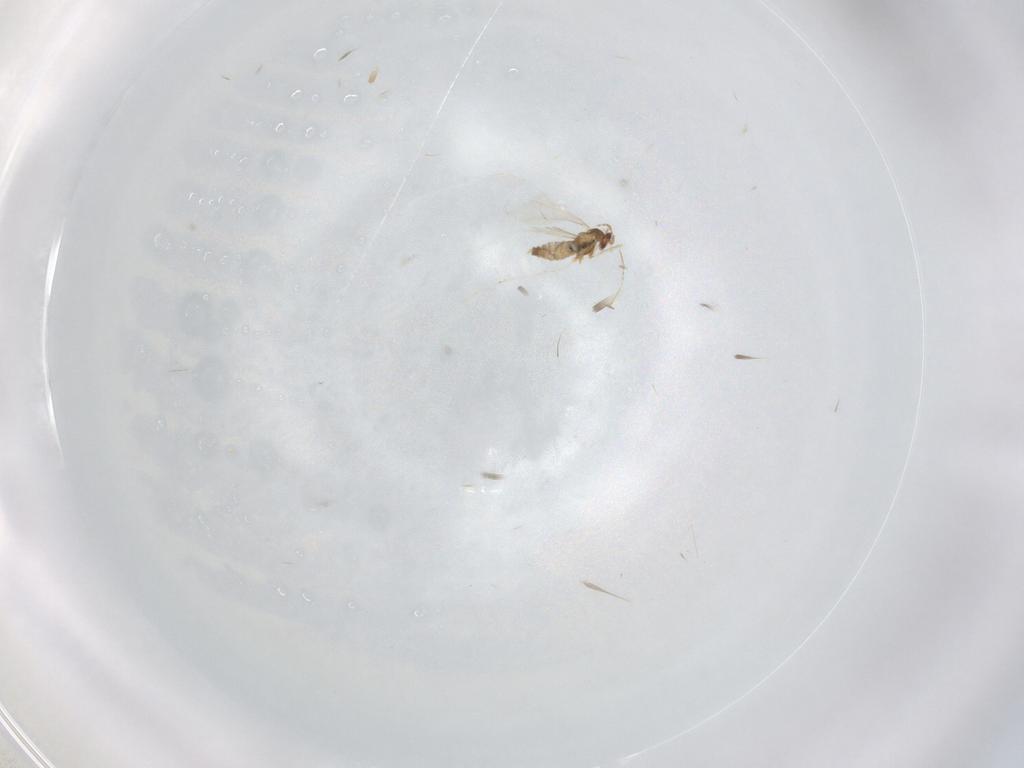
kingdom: Animalia
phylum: Arthropoda
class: Insecta
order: Diptera
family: Cecidomyiidae
